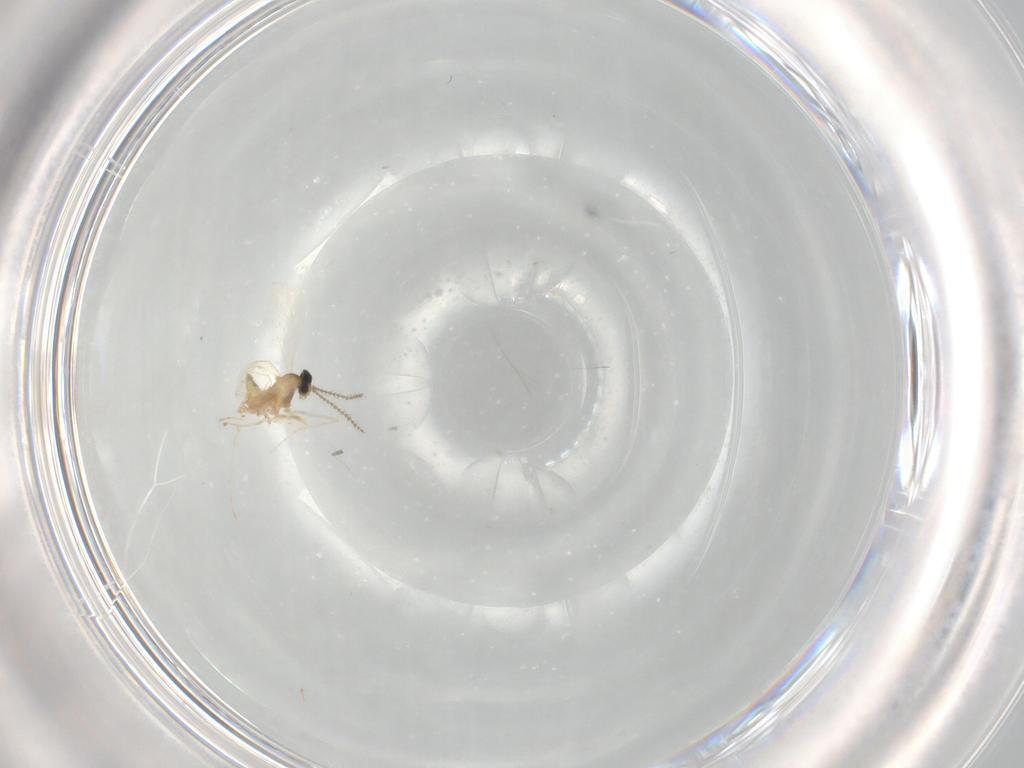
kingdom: Animalia
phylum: Arthropoda
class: Insecta
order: Diptera
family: Cecidomyiidae
